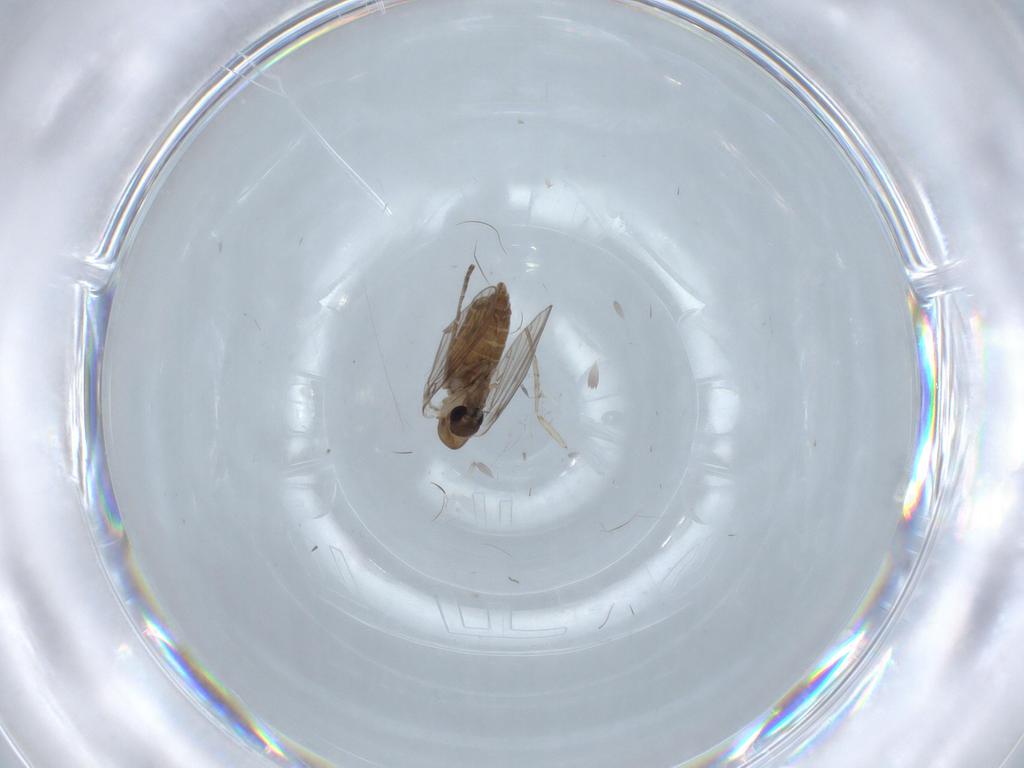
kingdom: Animalia
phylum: Arthropoda
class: Insecta
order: Diptera
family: Psychodidae
